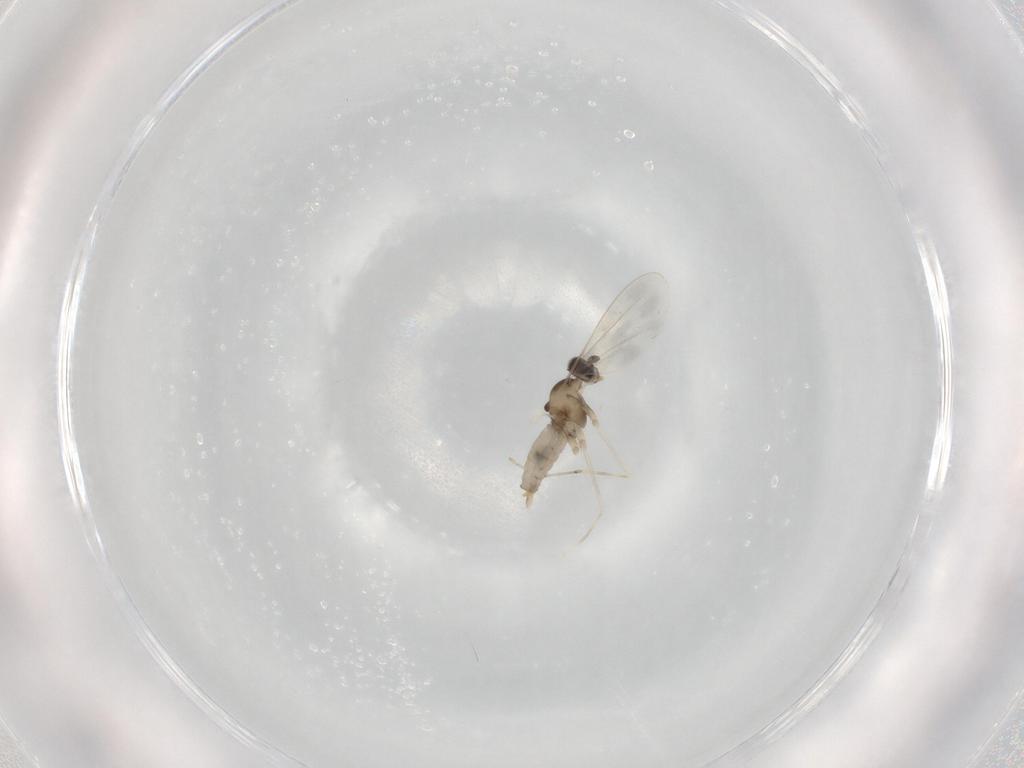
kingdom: Animalia
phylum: Arthropoda
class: Insecta
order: Diptera
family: Cecidomyiidae
